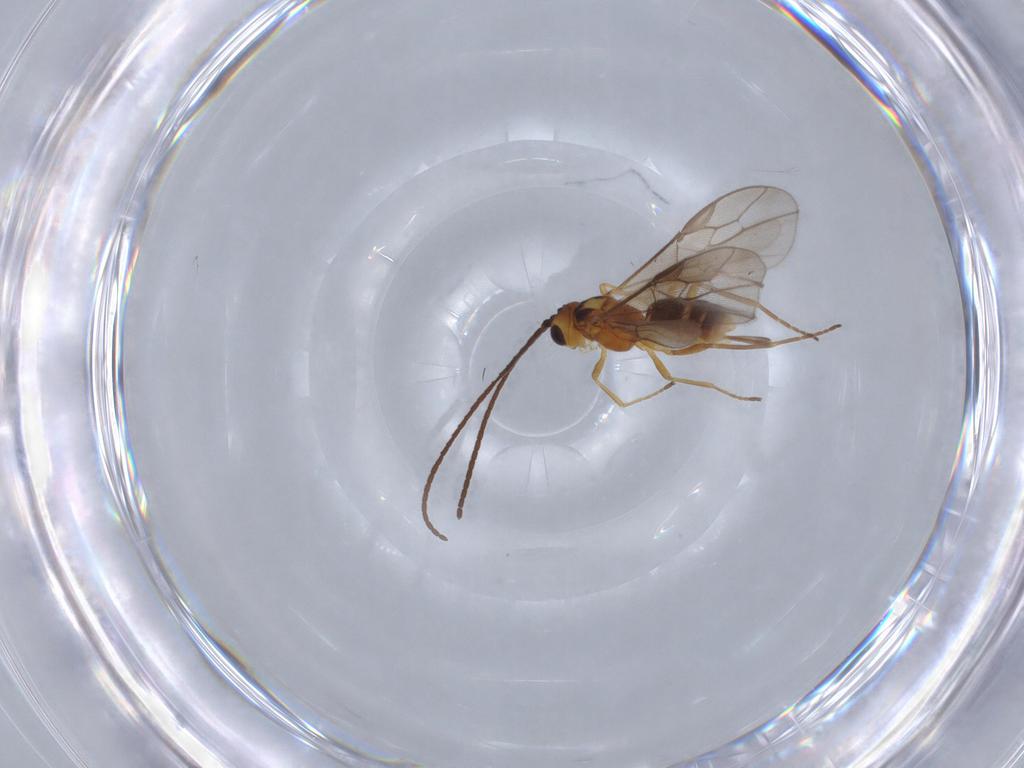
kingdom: Animalia
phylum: Arthropoda
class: Insecta
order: Hymenoptera
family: Braconidae
